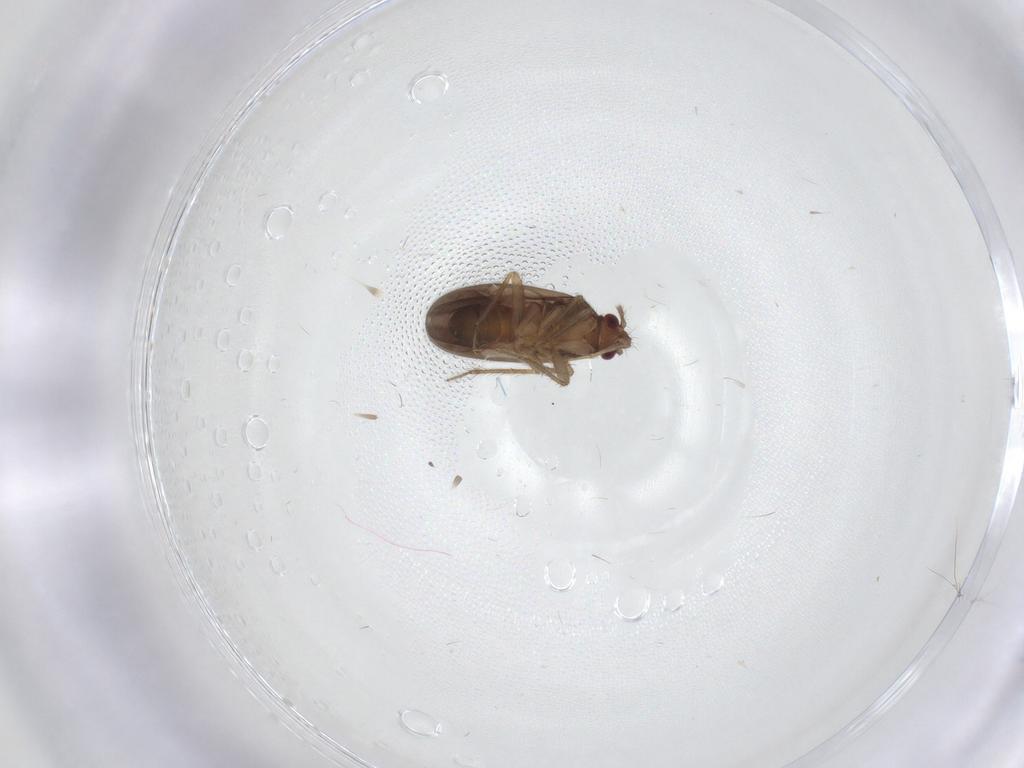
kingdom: Animalia
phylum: Arthropoda
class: Insecta
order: Hemiptera
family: Ceratocombidae
